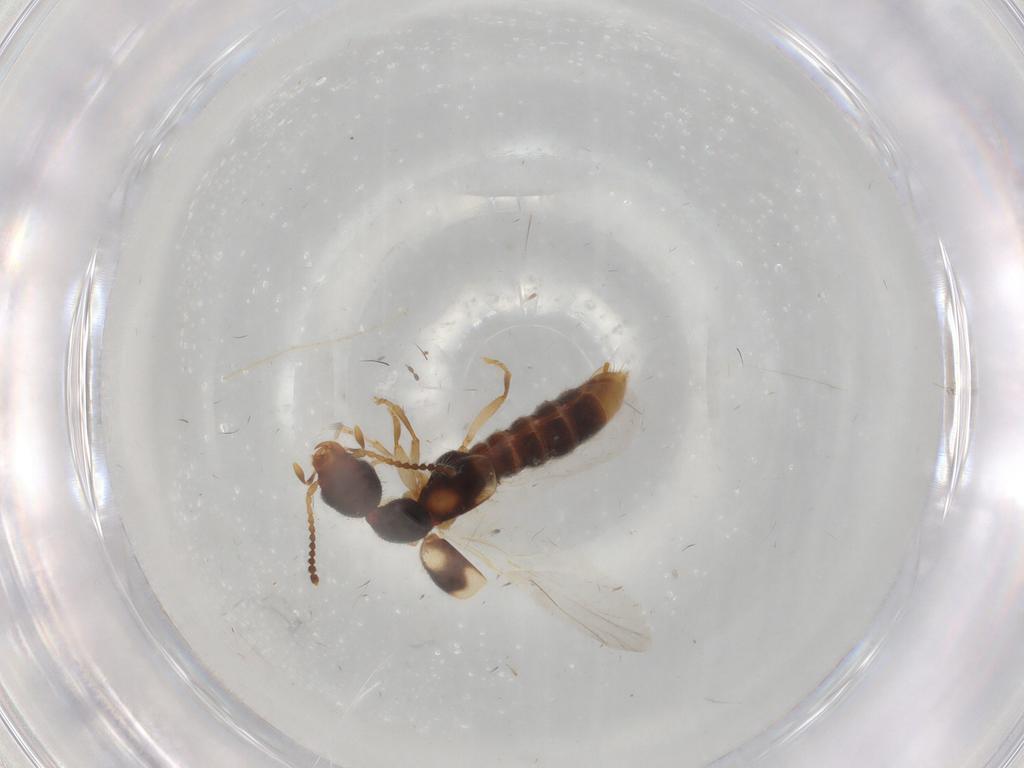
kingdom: Animalia
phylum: Arthropoda
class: Insecta
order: Coleoptera
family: Staphylinidae
